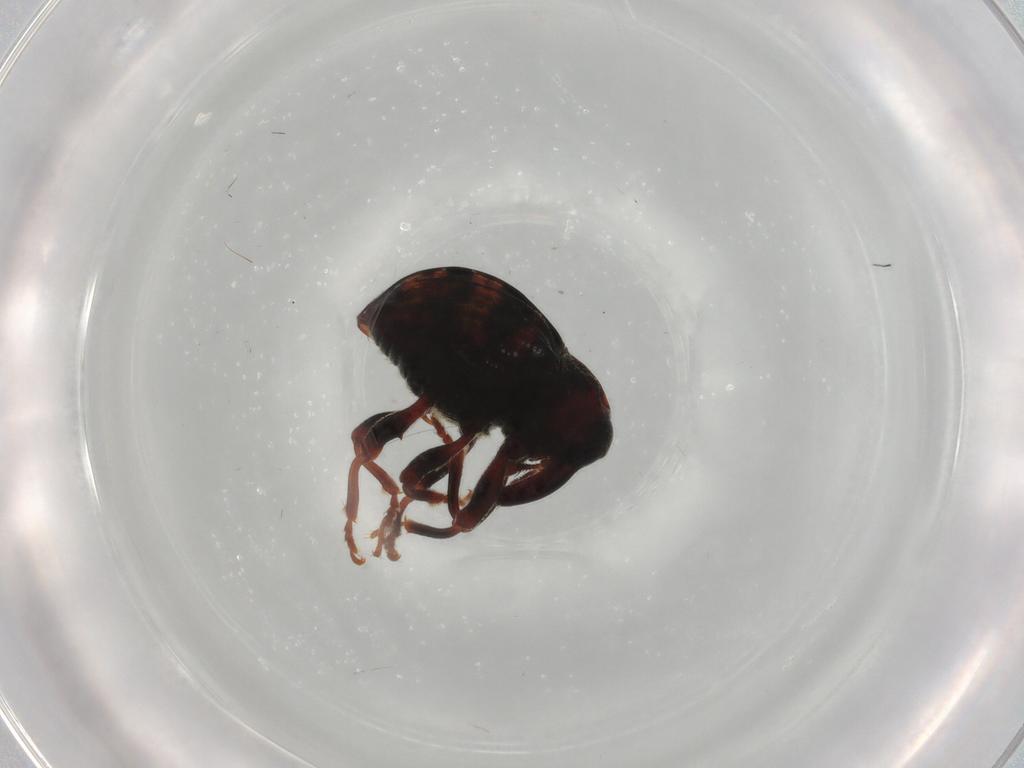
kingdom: Animalia
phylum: Arthropoda
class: Insecta
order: Coleoptera
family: Curculionidae
